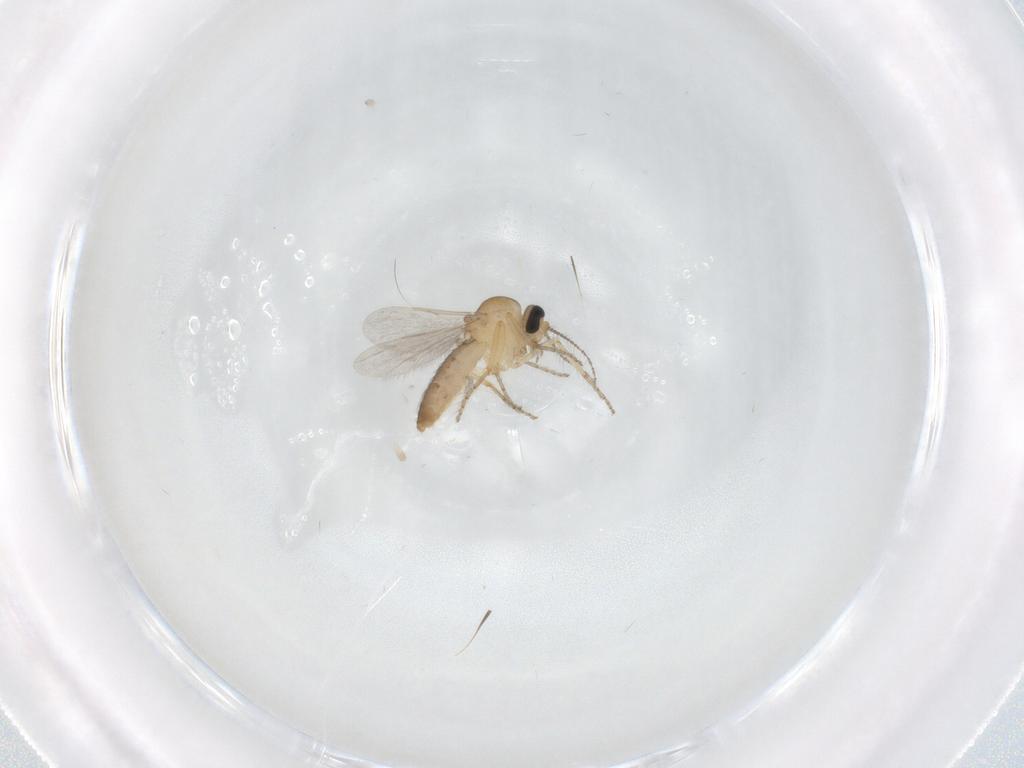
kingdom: Animalia
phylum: Arthropoda
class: Insecta
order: Diptera
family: Ceratopogonidae
